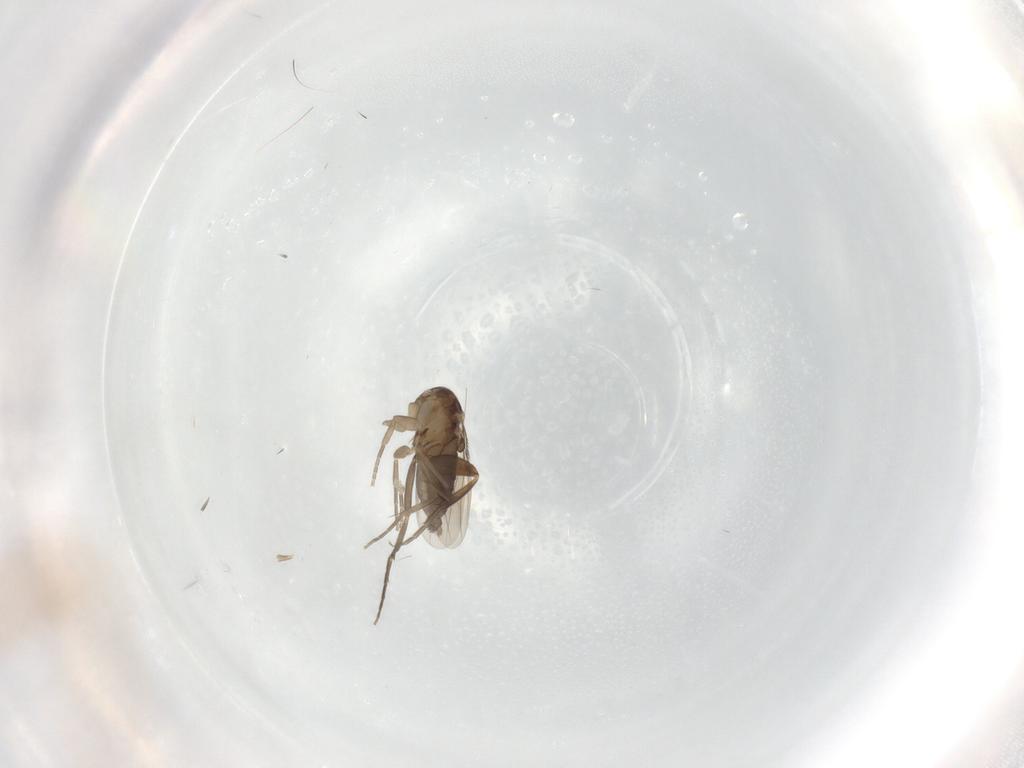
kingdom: Animalia
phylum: Arthropoda
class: Insecta
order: Diptera
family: Phoridae
